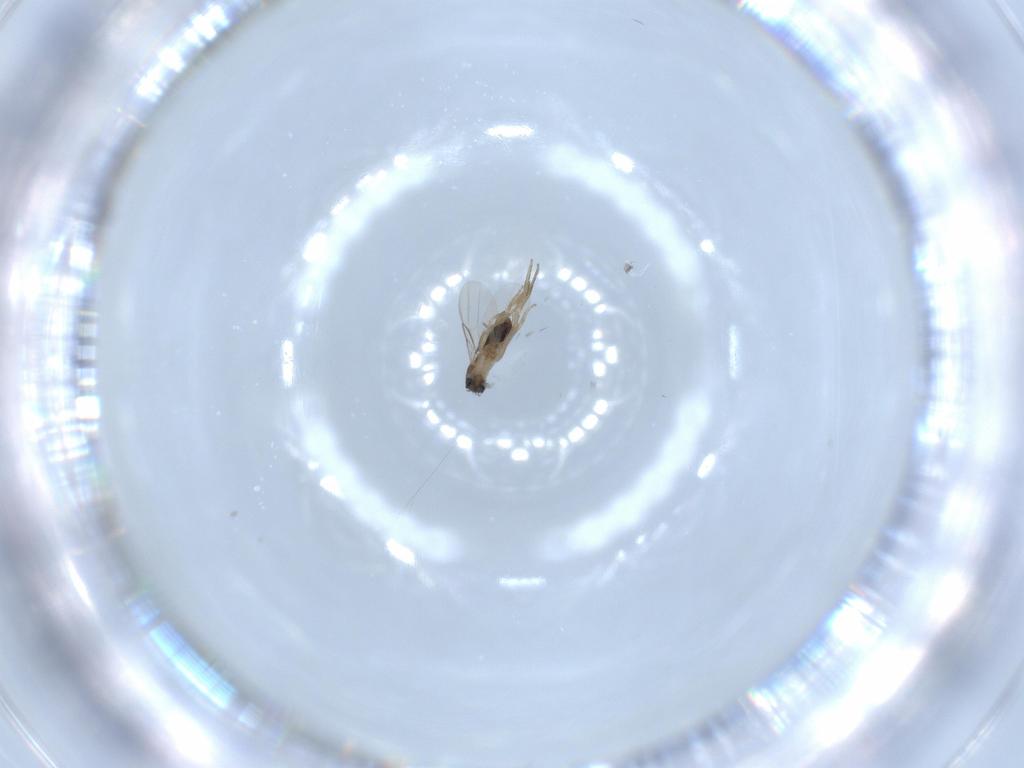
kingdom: Animalia
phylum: Arthropoda
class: Insecta
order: Diptera
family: Phoridae
